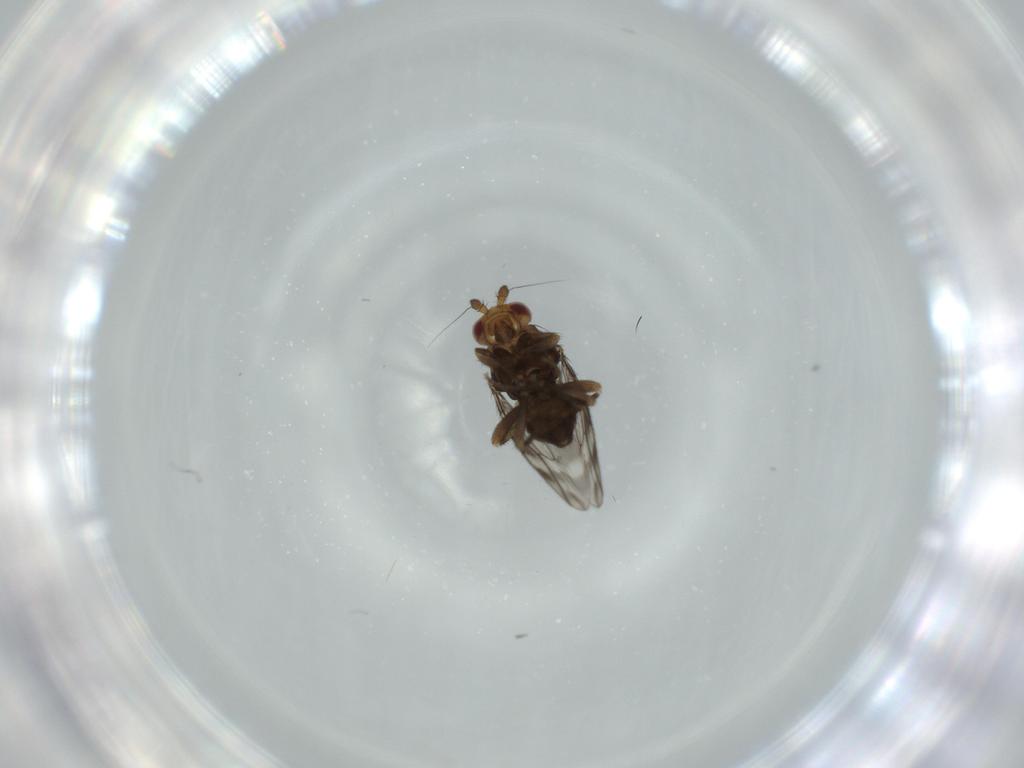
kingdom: Animalia
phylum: Arthropoda
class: Insecta
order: Diptera
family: Sphaeroceridae
